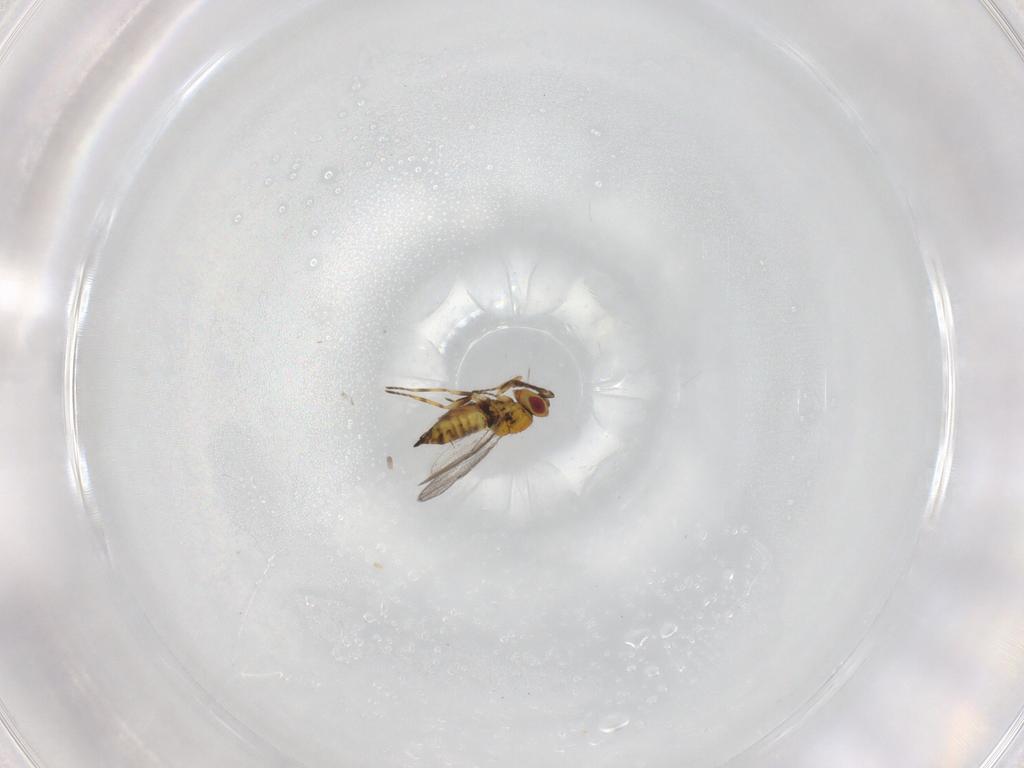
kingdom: Animalia
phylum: Arthropoda
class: Insecta
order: Hymenoptera
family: Eulophidae
